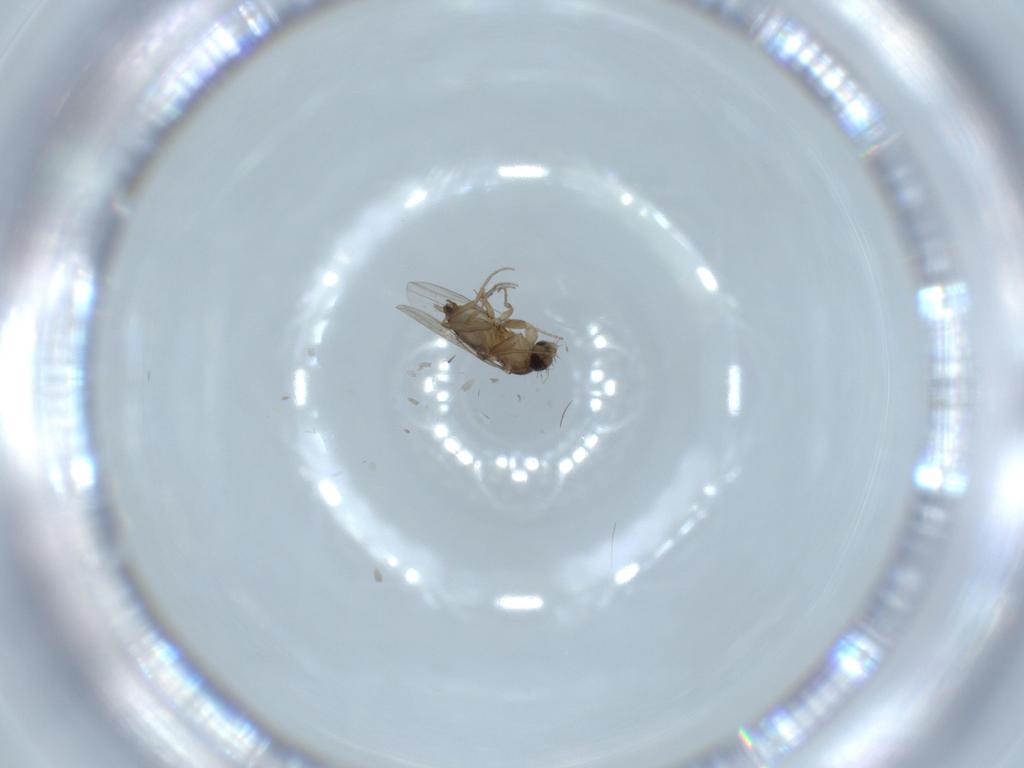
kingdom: Animalia
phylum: Arthropoda
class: Insecta
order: Diptera
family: Phoridae
